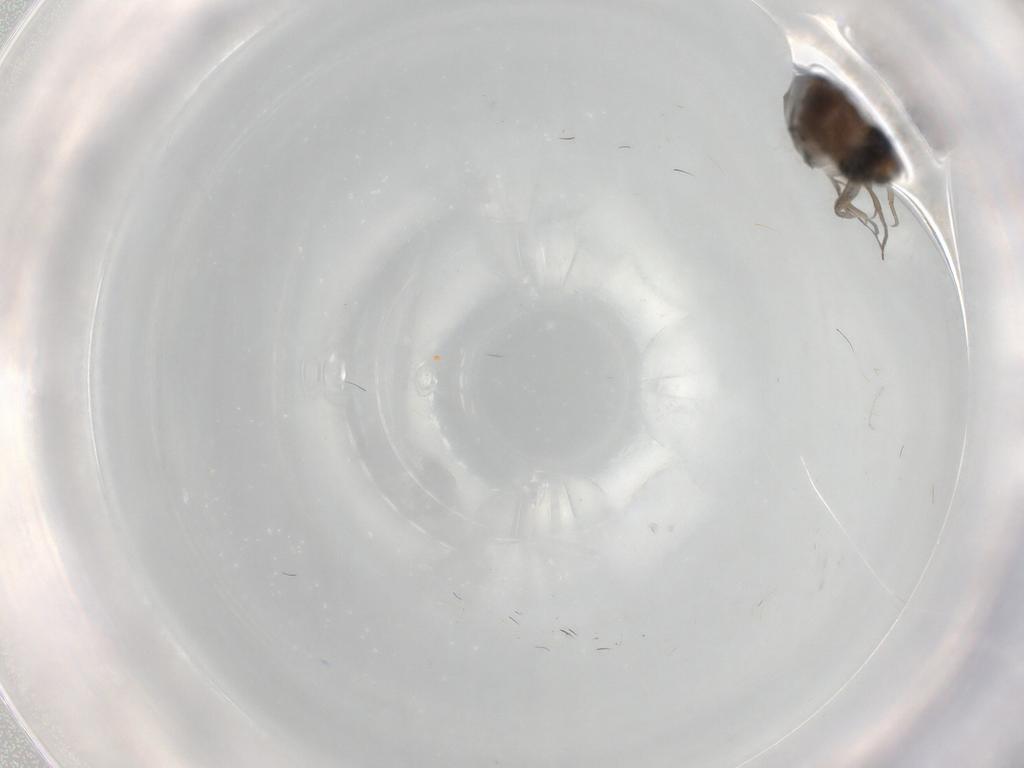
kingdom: Animalia
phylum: Arthropoda
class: Insecta
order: Diptera
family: Phoridae
